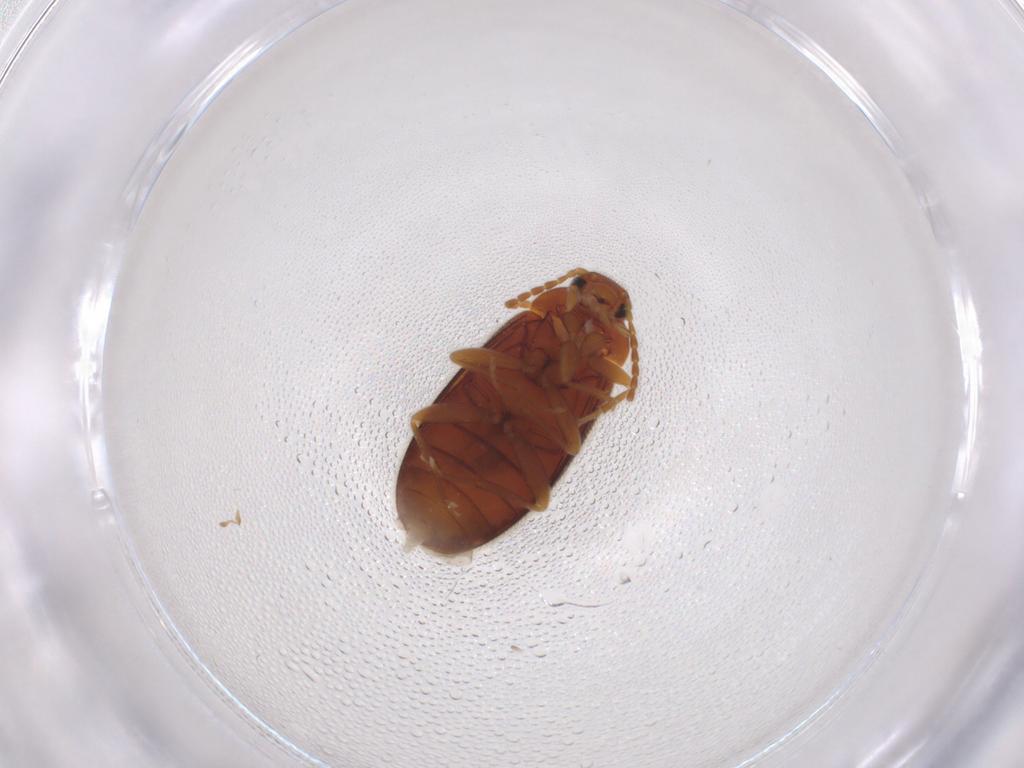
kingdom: Animalia
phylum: Arthropoda
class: Insecta
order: Coleoptera
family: Scraptiidae
